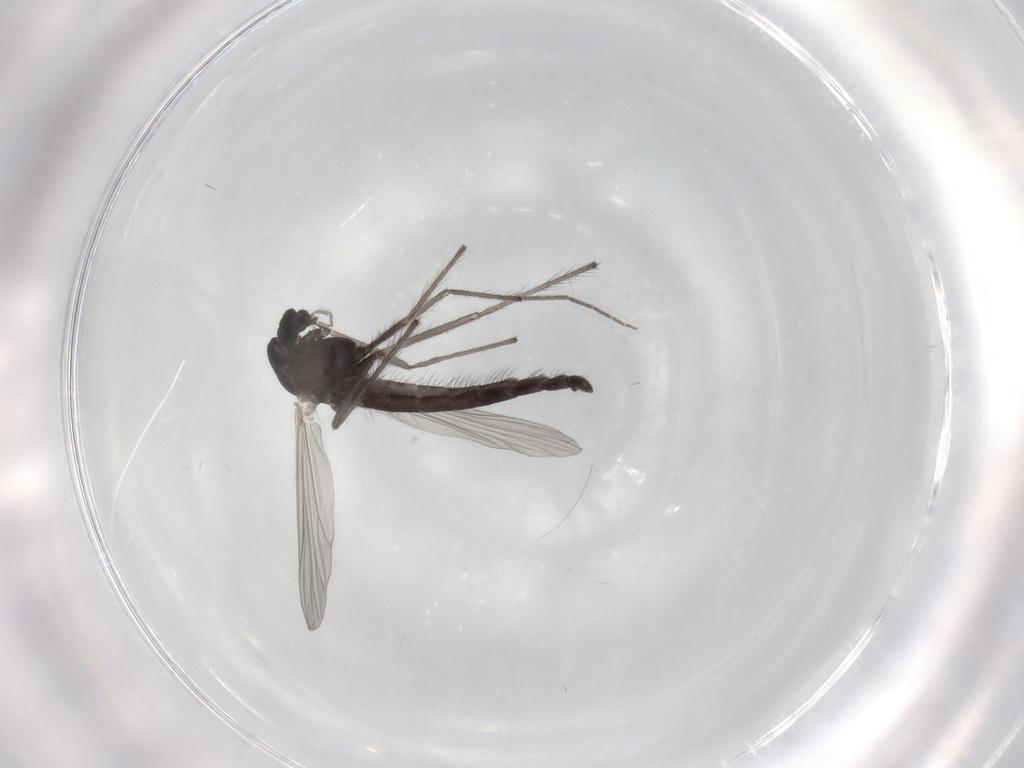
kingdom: Animalia
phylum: Arthropoda
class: Insecta
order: Diptera
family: Chironomidae
